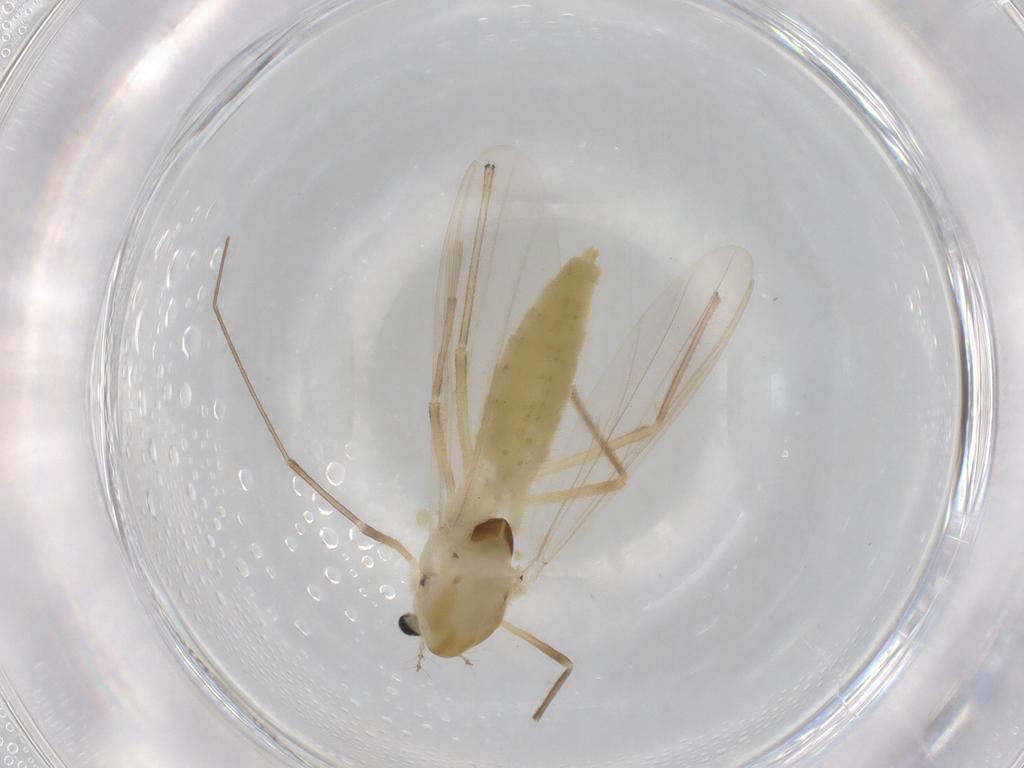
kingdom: Animalia
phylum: Arthropoda
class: Insecta
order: Diptera
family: Chironomidae
